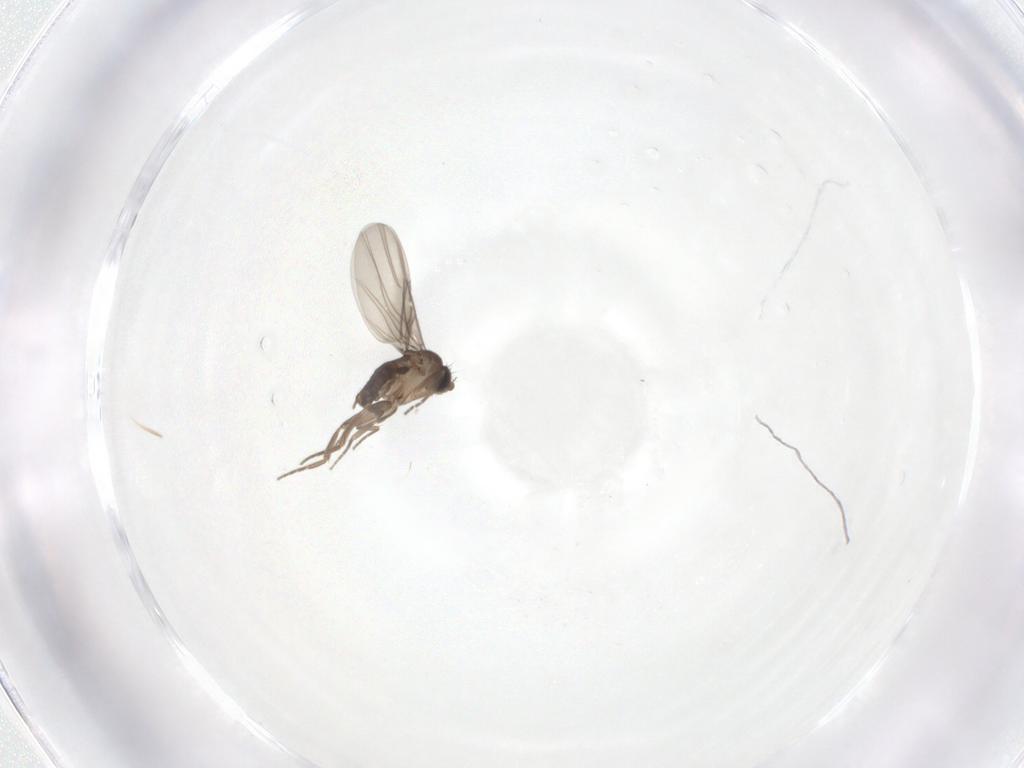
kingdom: Animalia
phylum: Arthropoda
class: Insecta
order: Diptera
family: Phoridae
